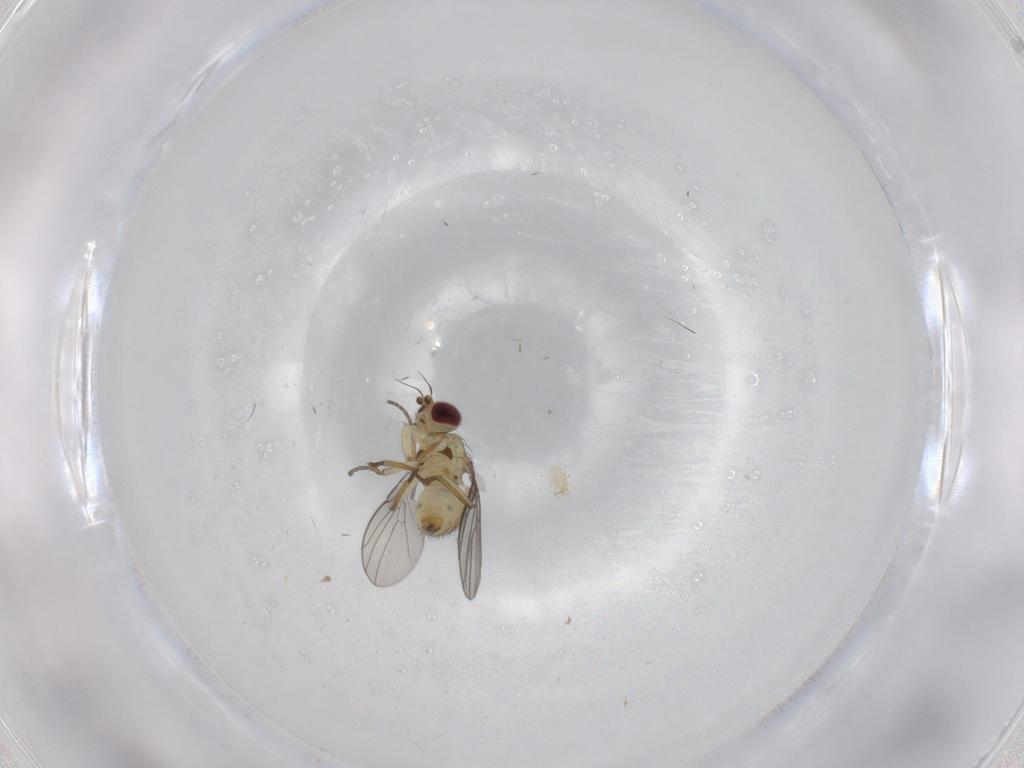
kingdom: Animalia
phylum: Arthropoda
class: Insecta
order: Diptera
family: Agromyzidae
